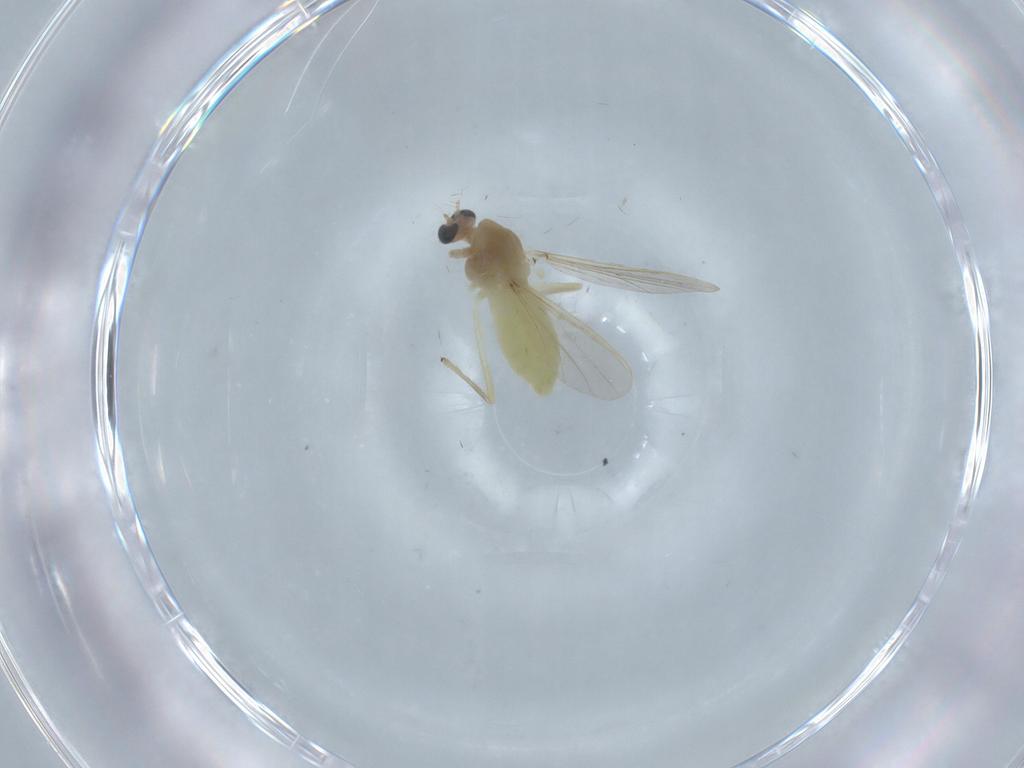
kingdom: Animalia
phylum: Arthropoda
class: Insecta
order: Diptera
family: Chironomidae
